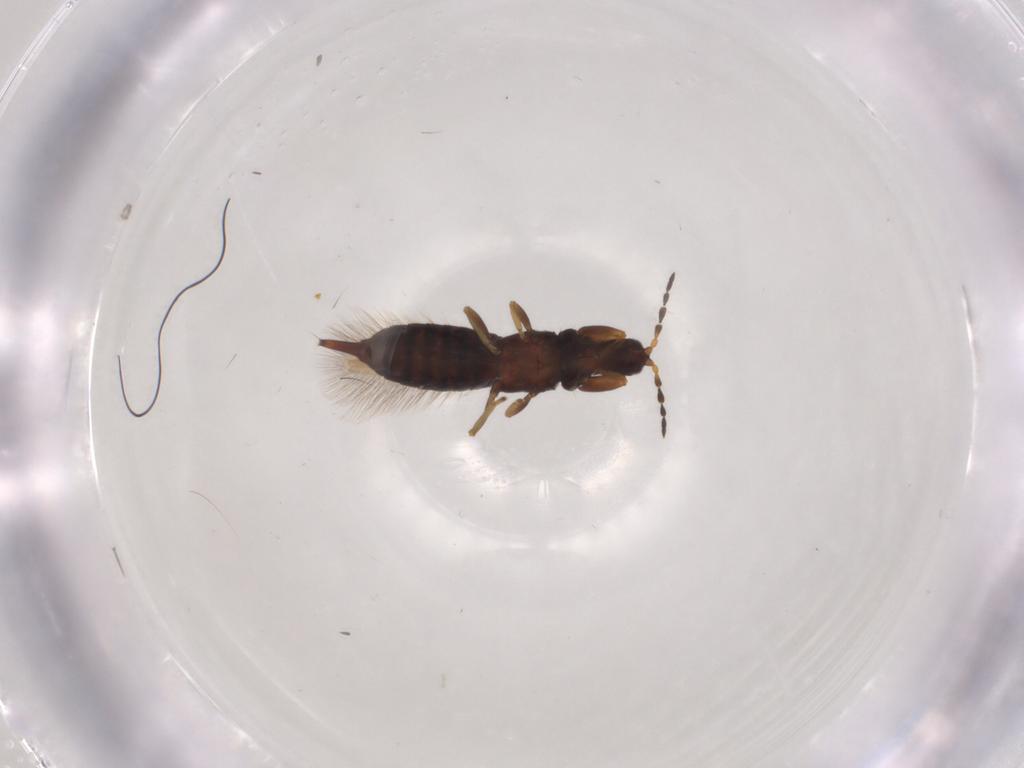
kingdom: Animalia
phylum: Arthropoda
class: Insecta
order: Thysanoptera
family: Phlaeothripidae
